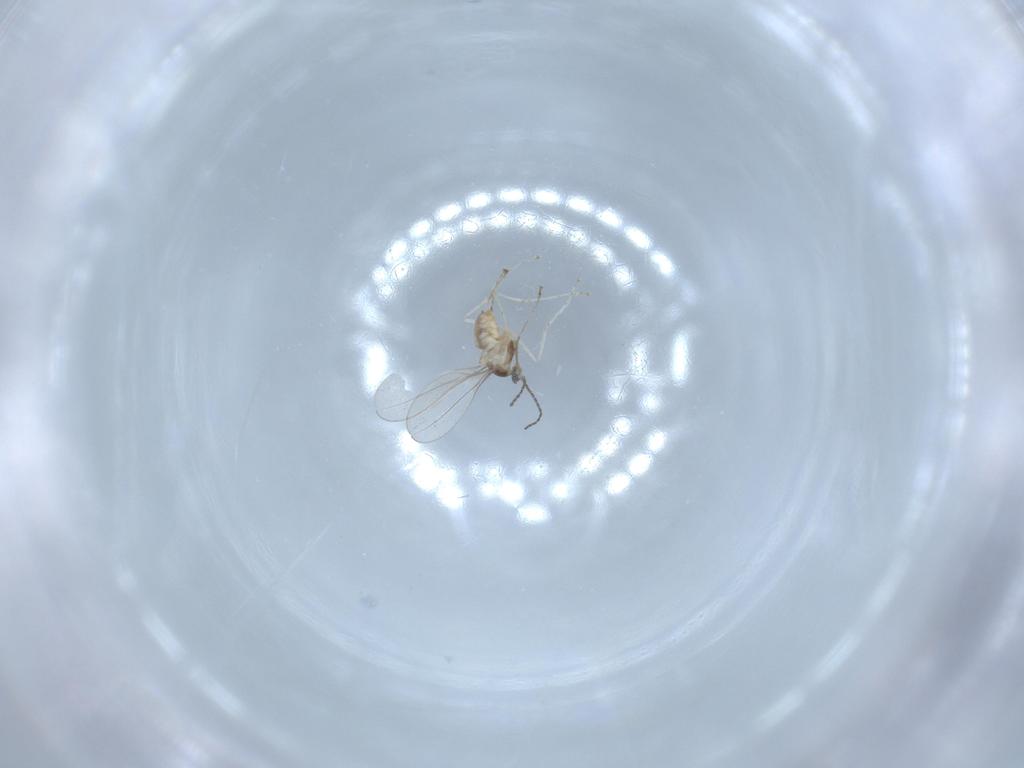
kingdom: Animalia
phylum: Arthropoda
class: Insecta
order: Diptera
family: Cecidomyiidae
